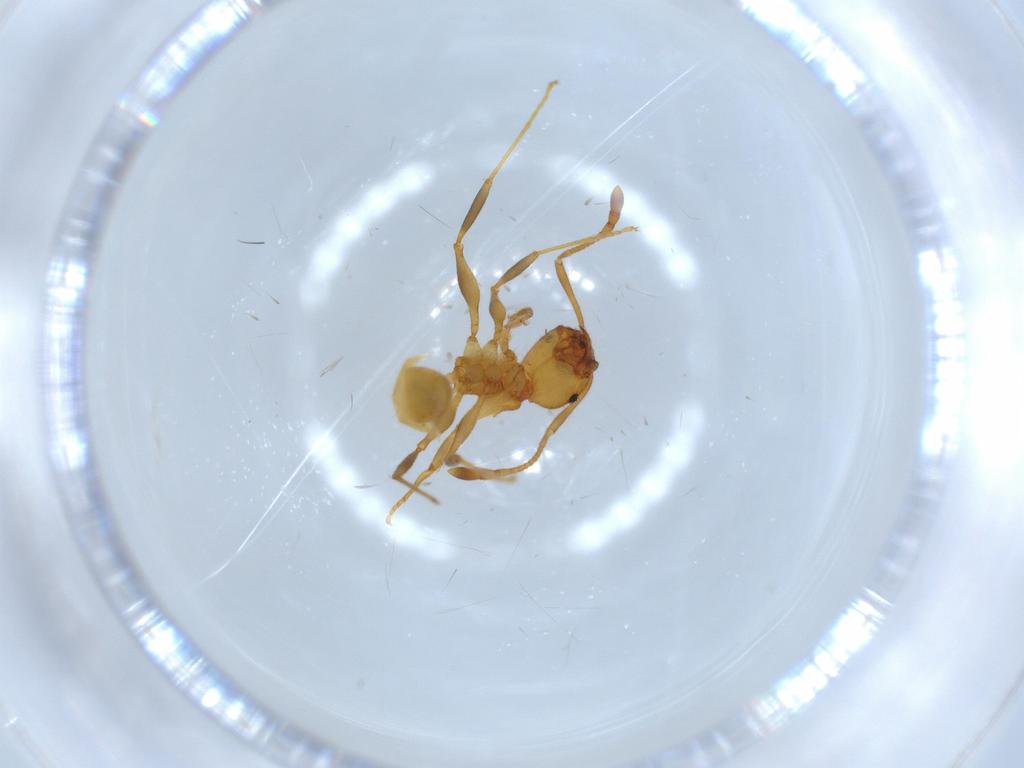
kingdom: Animalia
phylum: Arthropoda
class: Insecta
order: Hymenoptera
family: Formicidae
